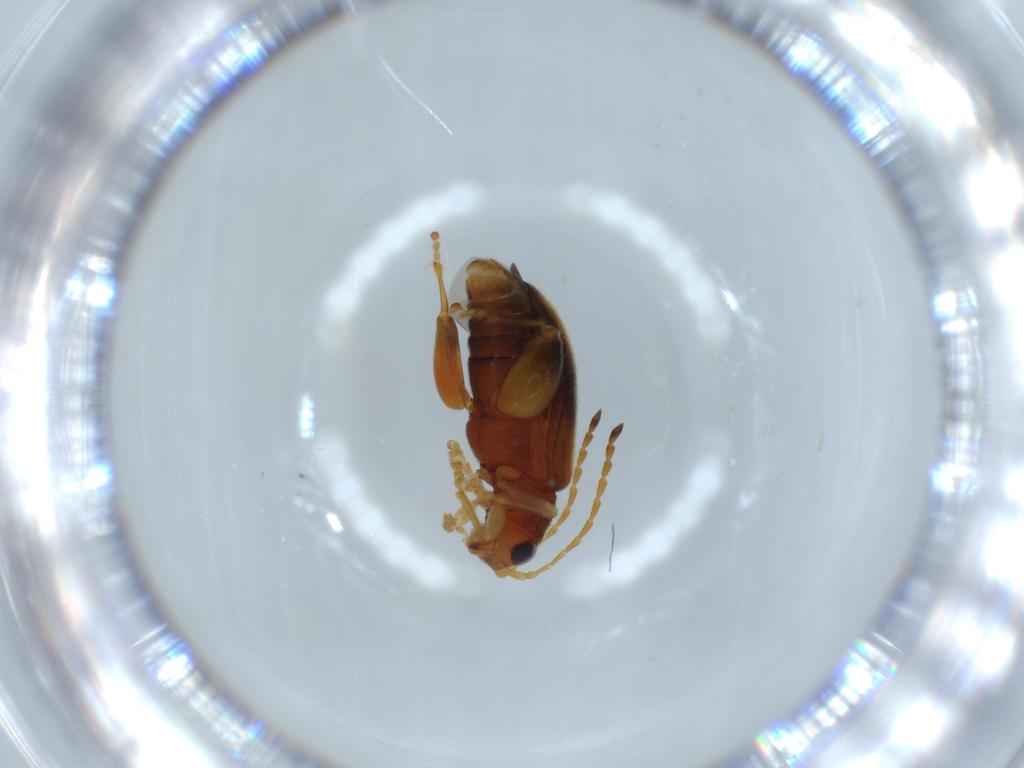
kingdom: Animalia
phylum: Arthropoda
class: Insecta
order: Coleoptera
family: Chrysomelidae
